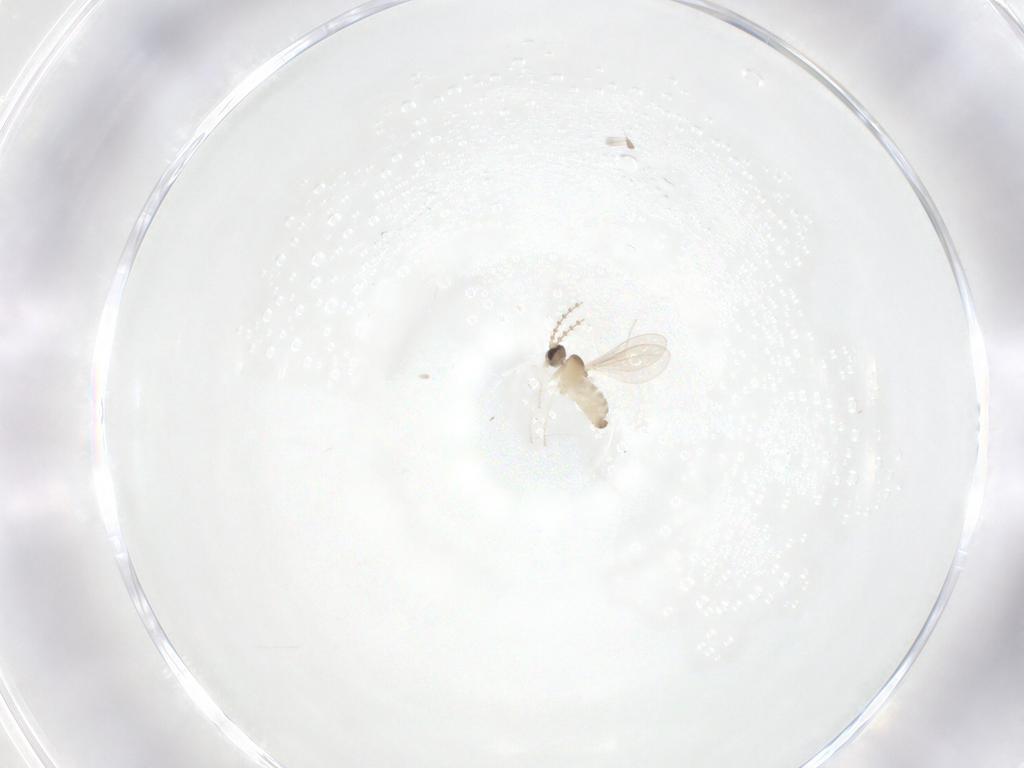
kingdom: Animalia
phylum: Arthropoda
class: Insecta
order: Diptera
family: Cecidomyiidae
